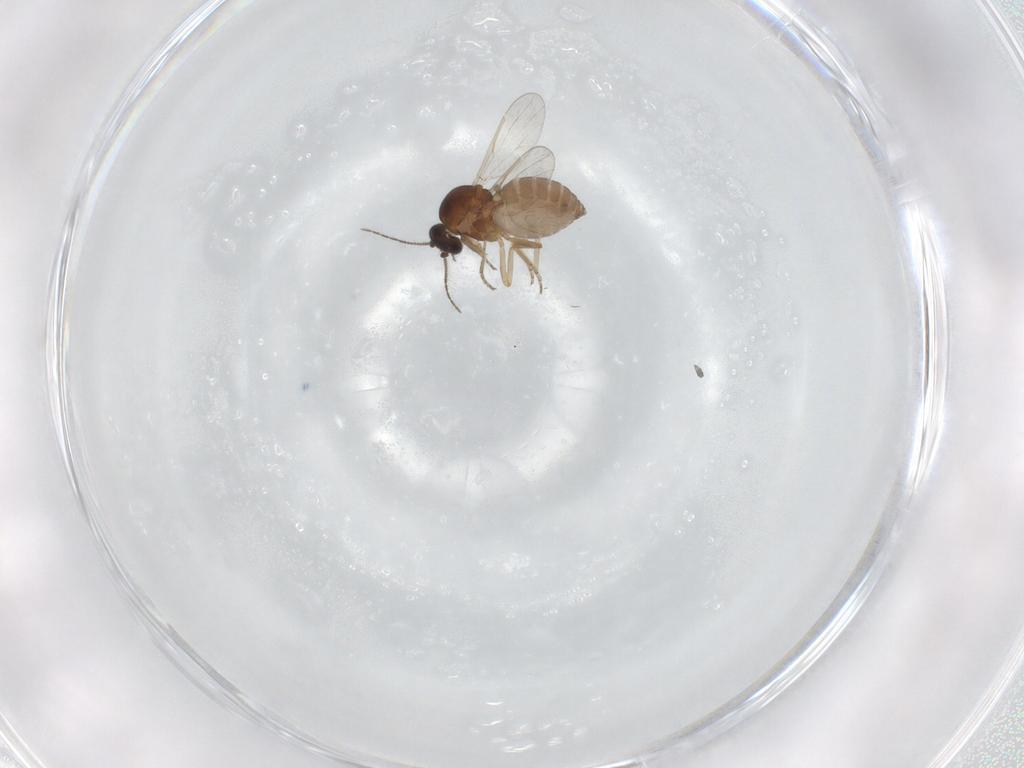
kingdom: Animalia
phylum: Arthropoda
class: Insecta
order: Diptera
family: Ceratopogonidae
